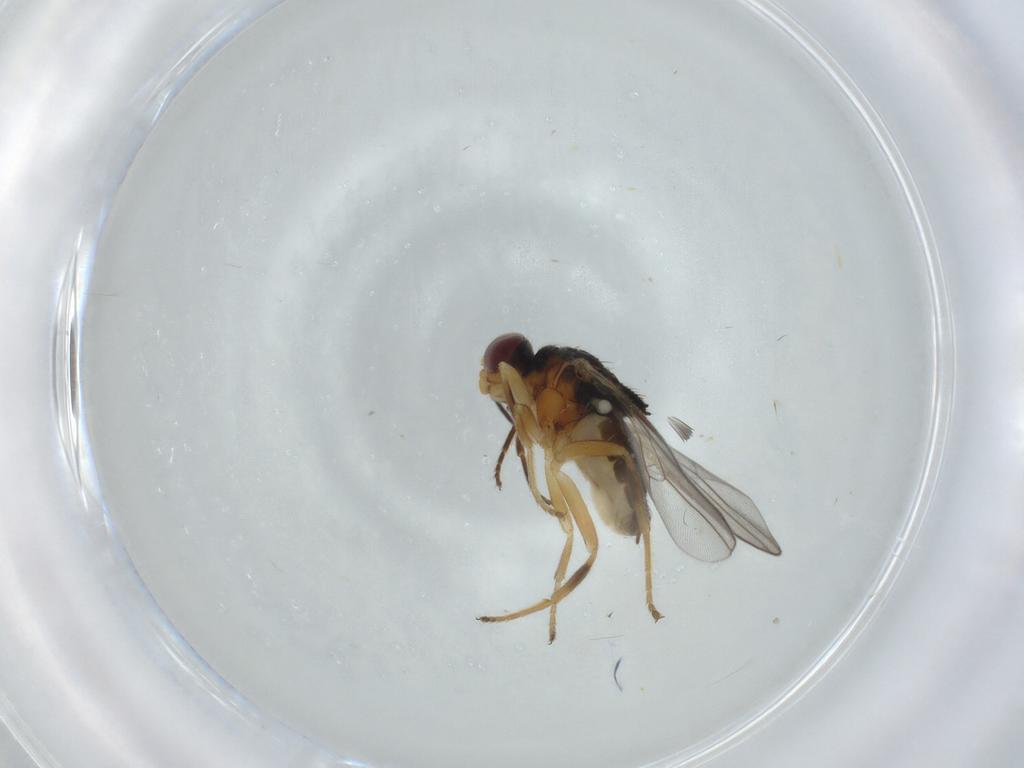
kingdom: Animalia
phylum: Arthropoda
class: Insecta
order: Diptera
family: Chloropidae
